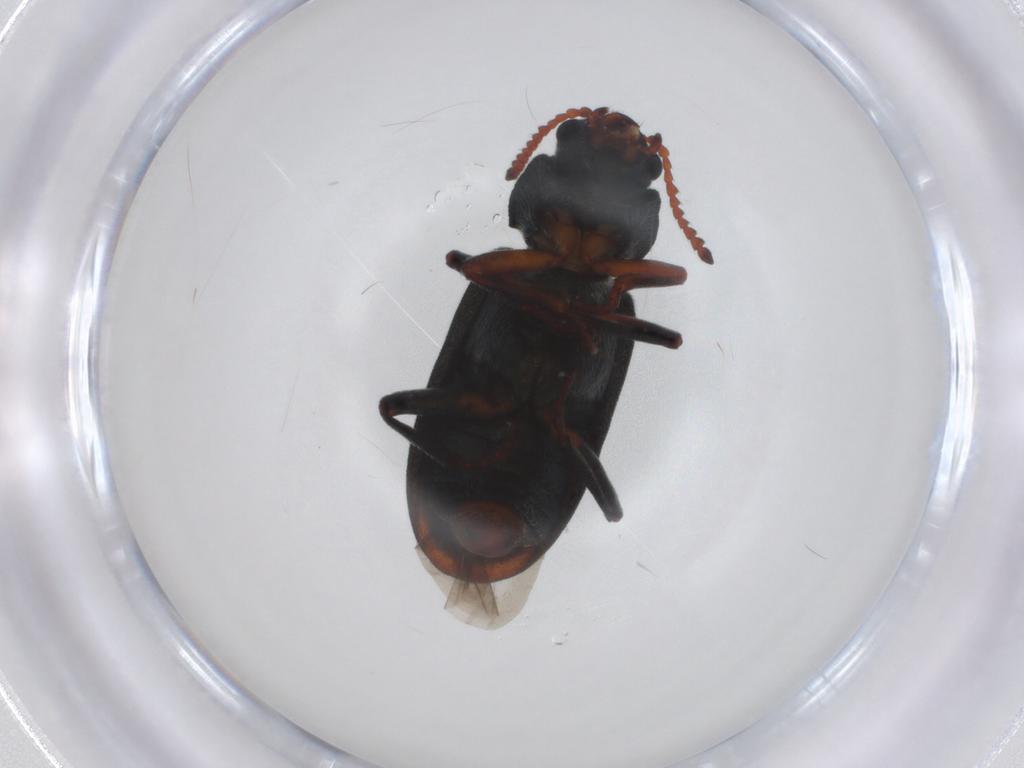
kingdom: Animalia
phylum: Arthropoda
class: Insecta
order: Coleoptera
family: Melyridae
